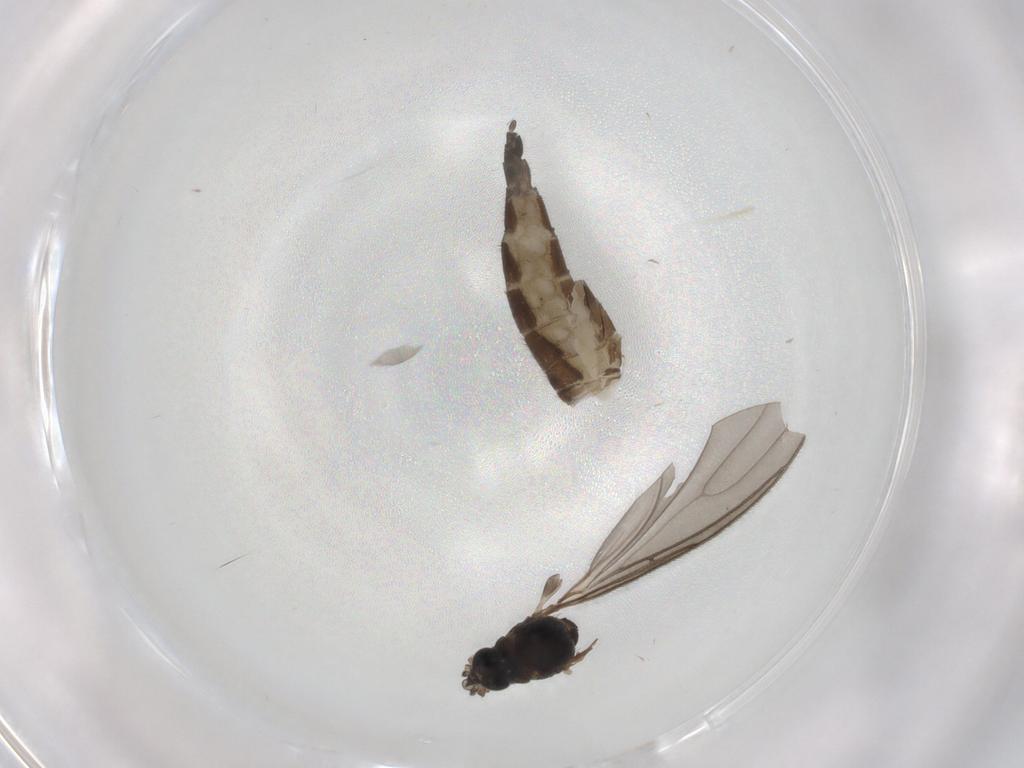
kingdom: Animalia
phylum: Arthropoda
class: Insecta
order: Diptera
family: Sciaridae
